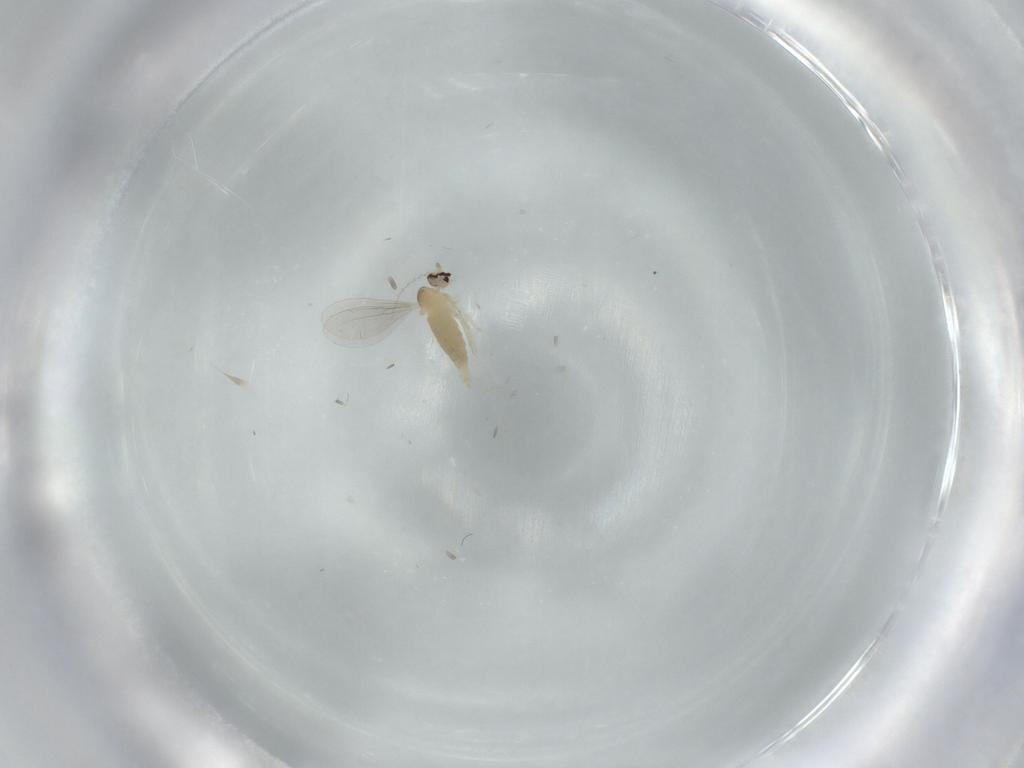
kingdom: Animalia
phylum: Arthropoda
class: Insecta
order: Diptera
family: Cecidomyiidae
